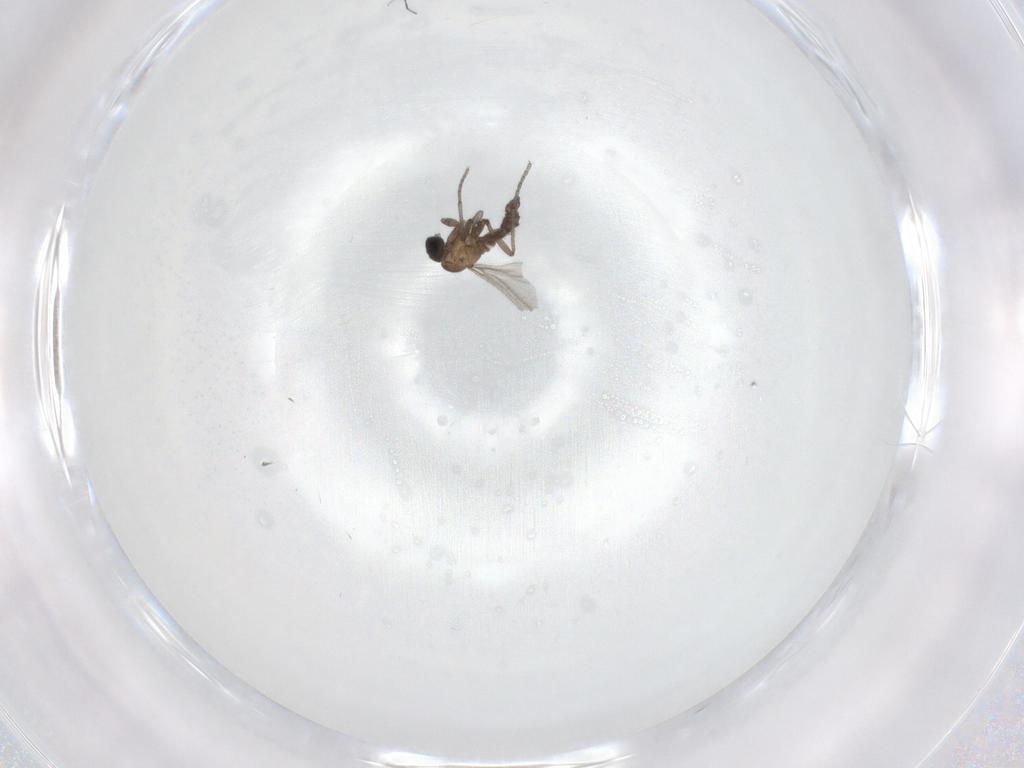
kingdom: Animalia
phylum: Arthropoda
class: Insecta
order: Diptera
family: Sciaridae
